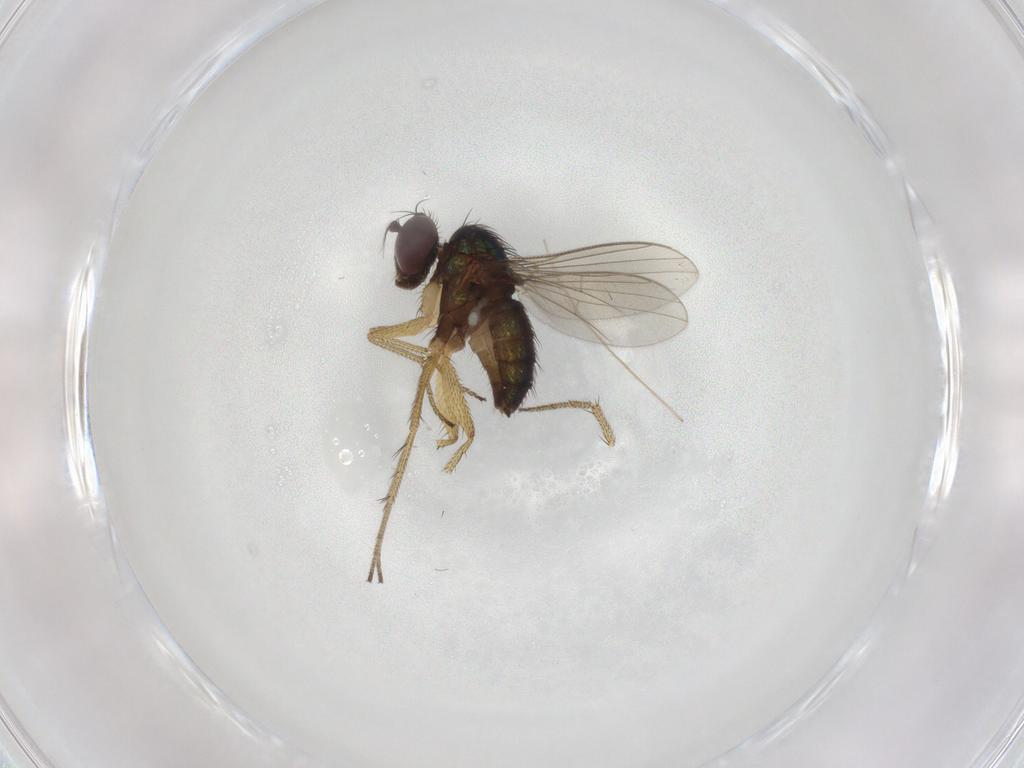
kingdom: Animalia
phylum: Arthropoda
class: Insecta
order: Diptera
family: Dolichopodidae
